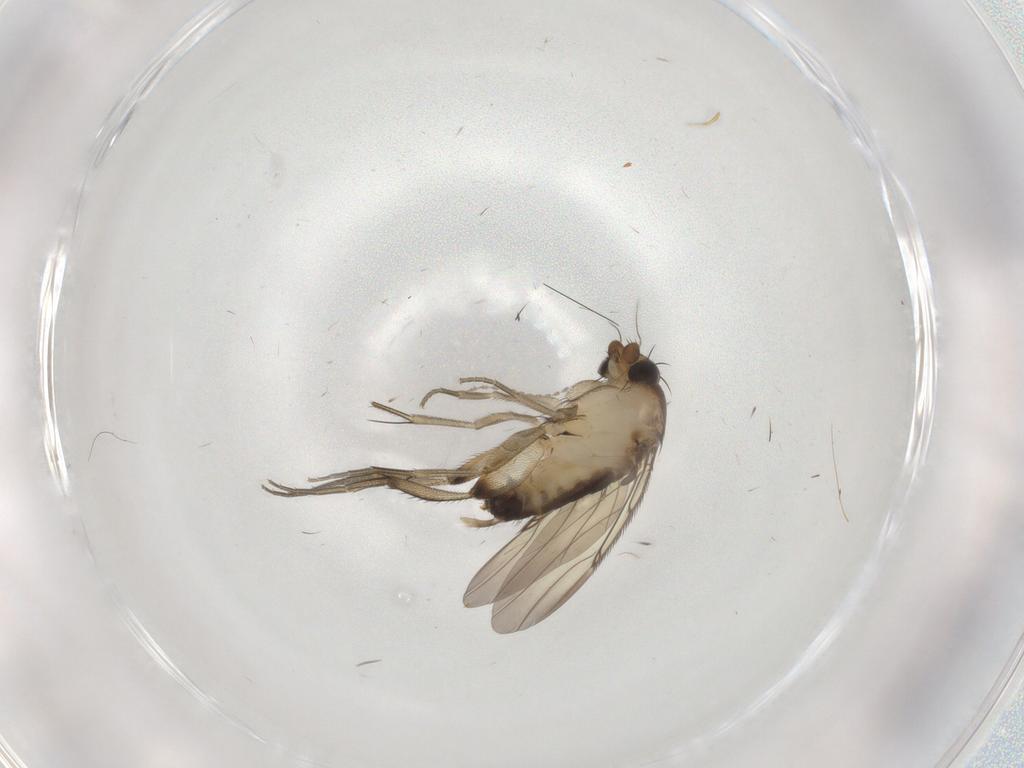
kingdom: Animalia
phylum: Arthropoda
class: Insecta
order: Diptera
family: Phoridae
